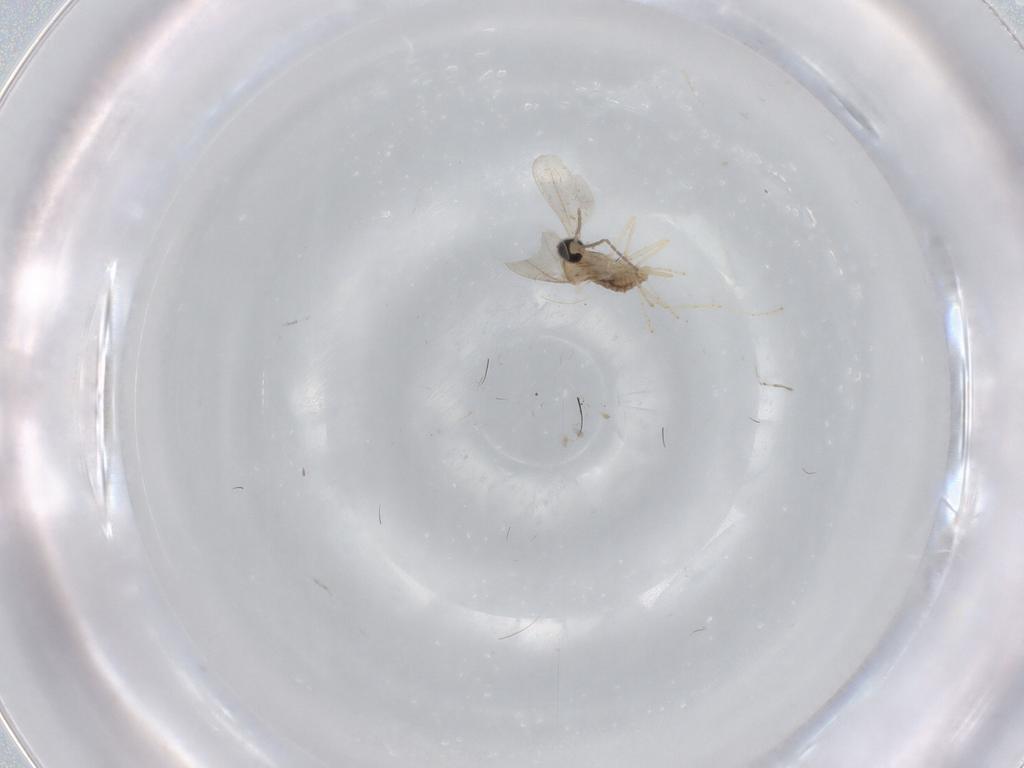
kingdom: Animalia
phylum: Arthropoda
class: Insecta
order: Diptera
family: Cecidomyiidae
